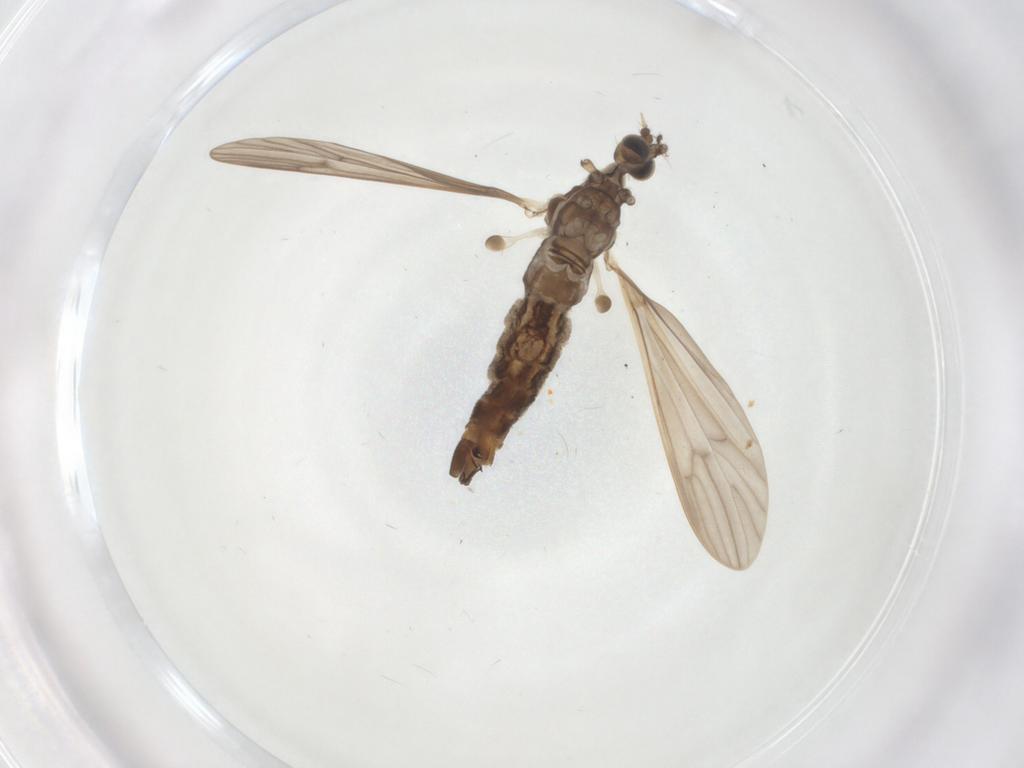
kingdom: Animalia
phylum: Arthropoda
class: Insecta
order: Diptera
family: Limoniidae
